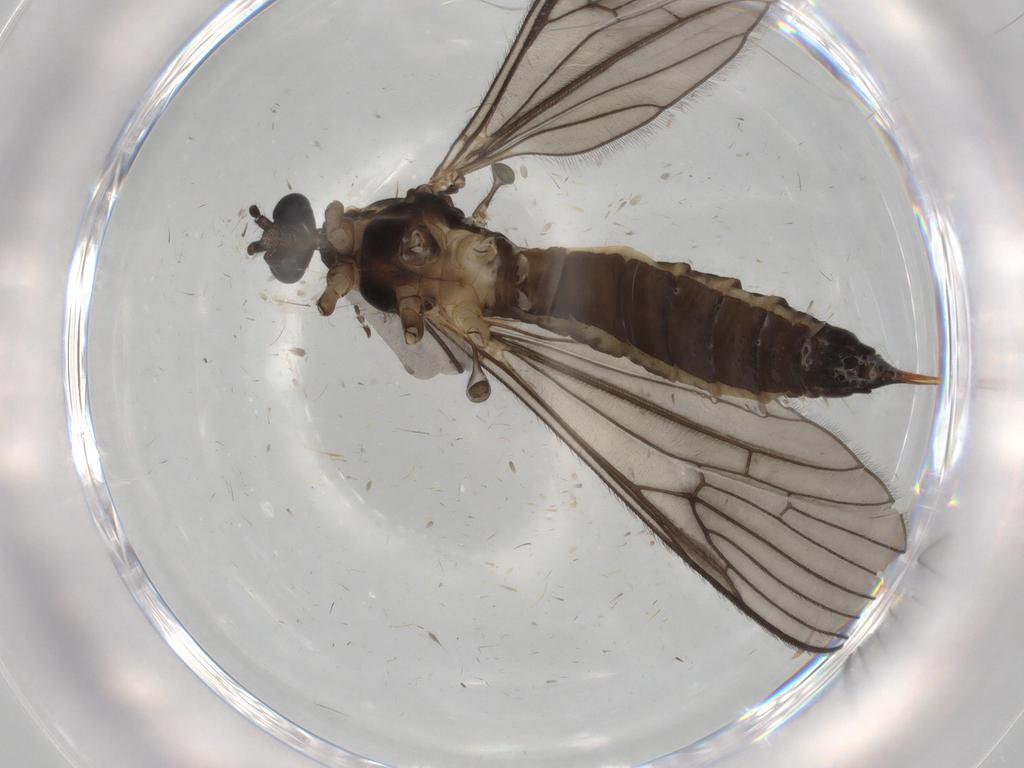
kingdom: Animalia
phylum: Arthropoda
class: Insecta
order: Diptera
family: Limoniidae
